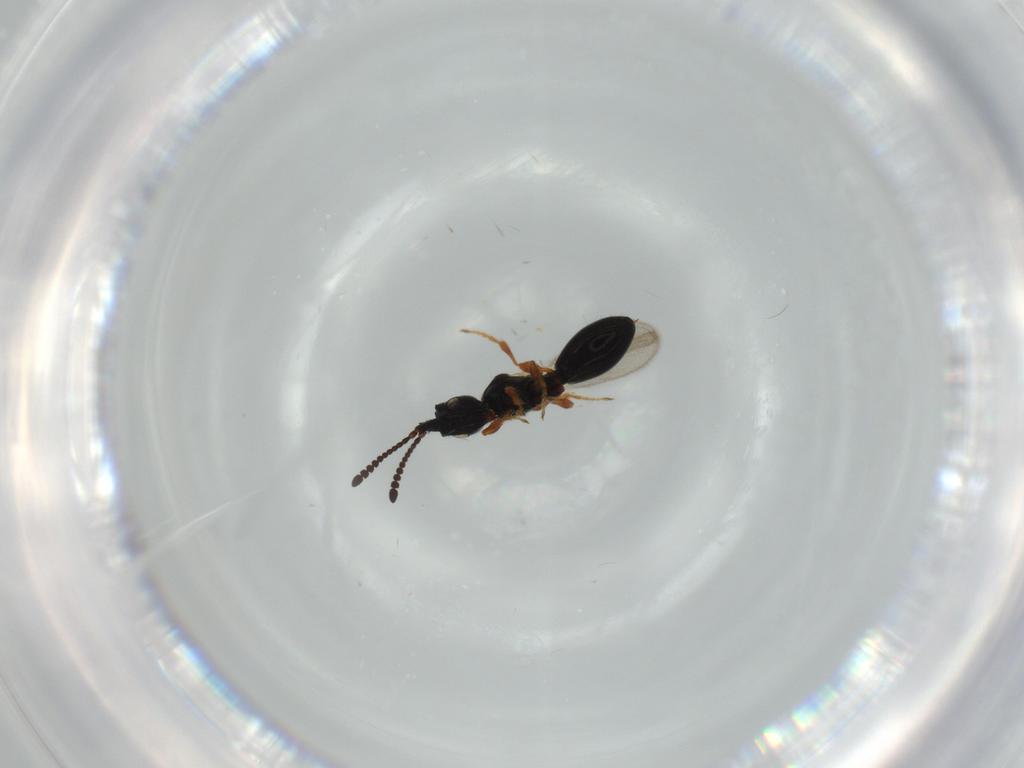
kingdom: Animalia
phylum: Arthropoda
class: Insecta
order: Hymenoptera
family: Diapriidae
